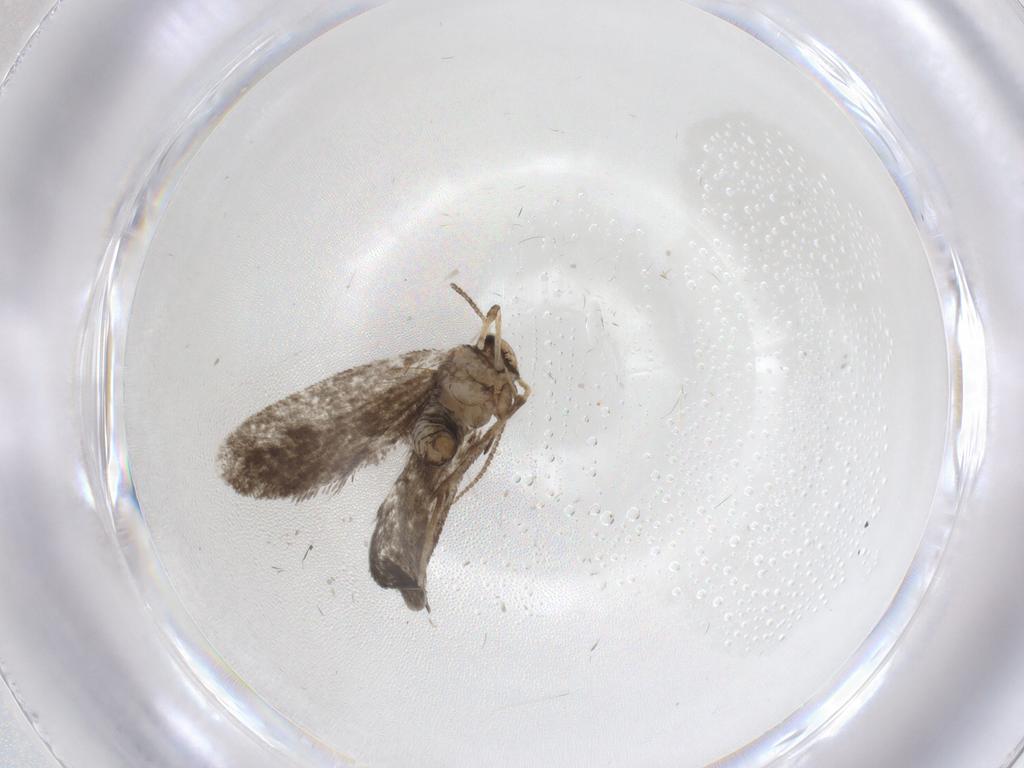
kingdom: Animalia
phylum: Arthropoda
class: Insecta
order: Lepidoptera
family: Psychidae
